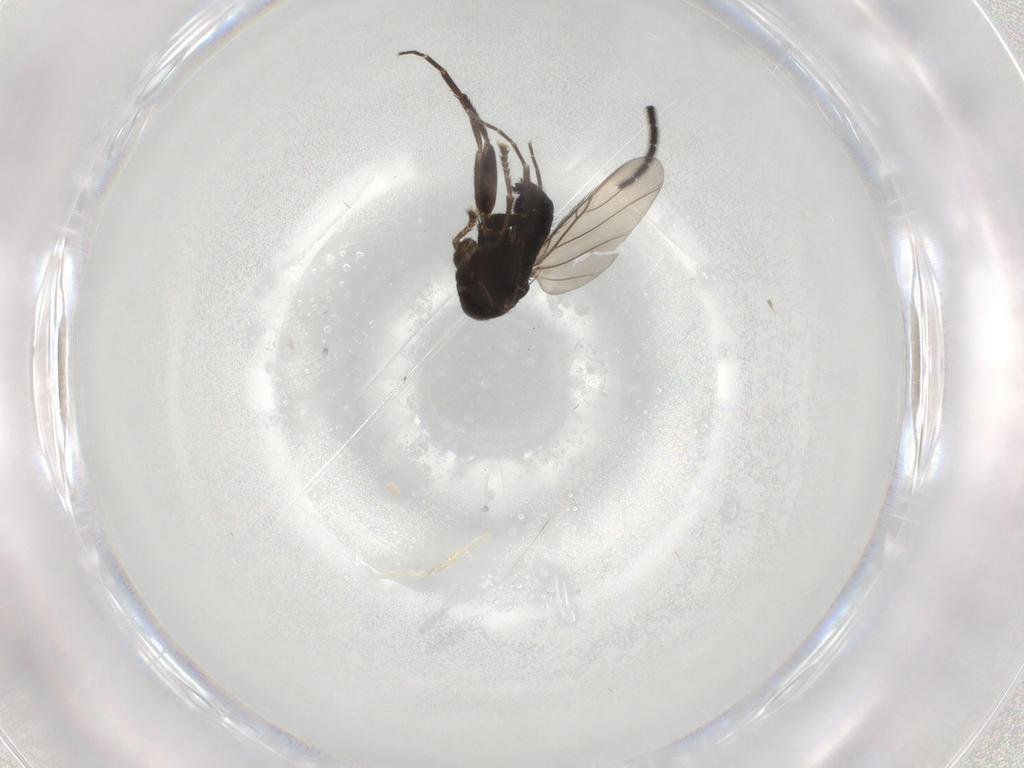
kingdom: Animalia
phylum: Arthropoda
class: Insecta
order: Diptera
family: Phoridae
